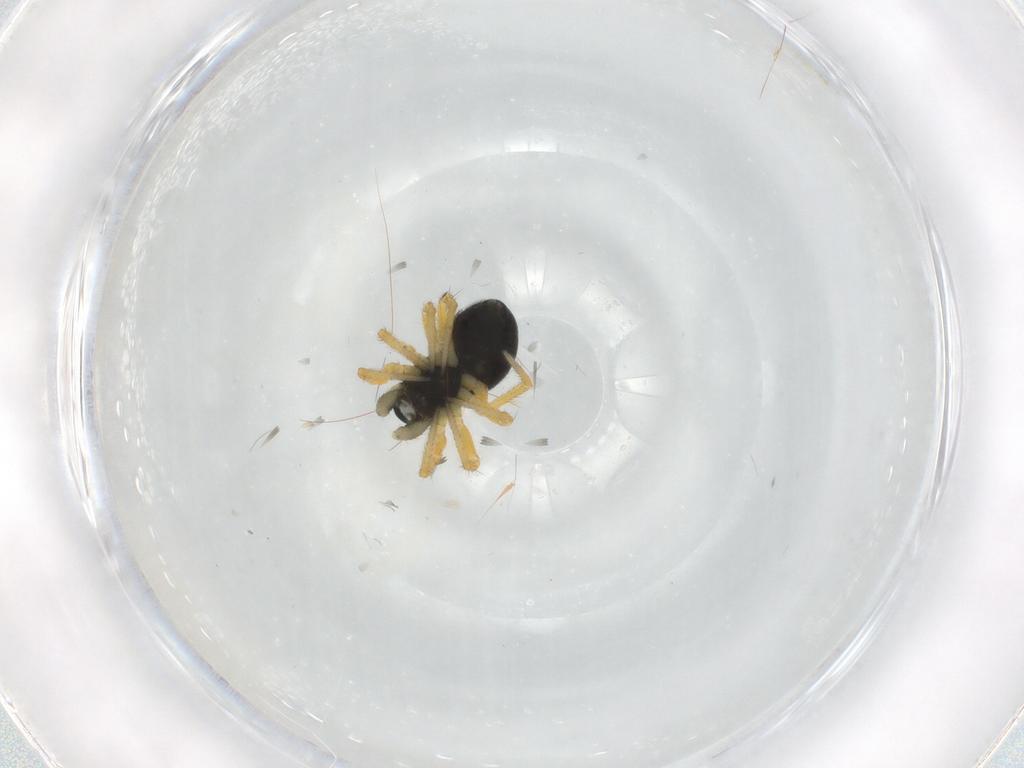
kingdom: Animalia
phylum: Arthropoda
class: Arachnida
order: Araneae
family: Linyphiidae
